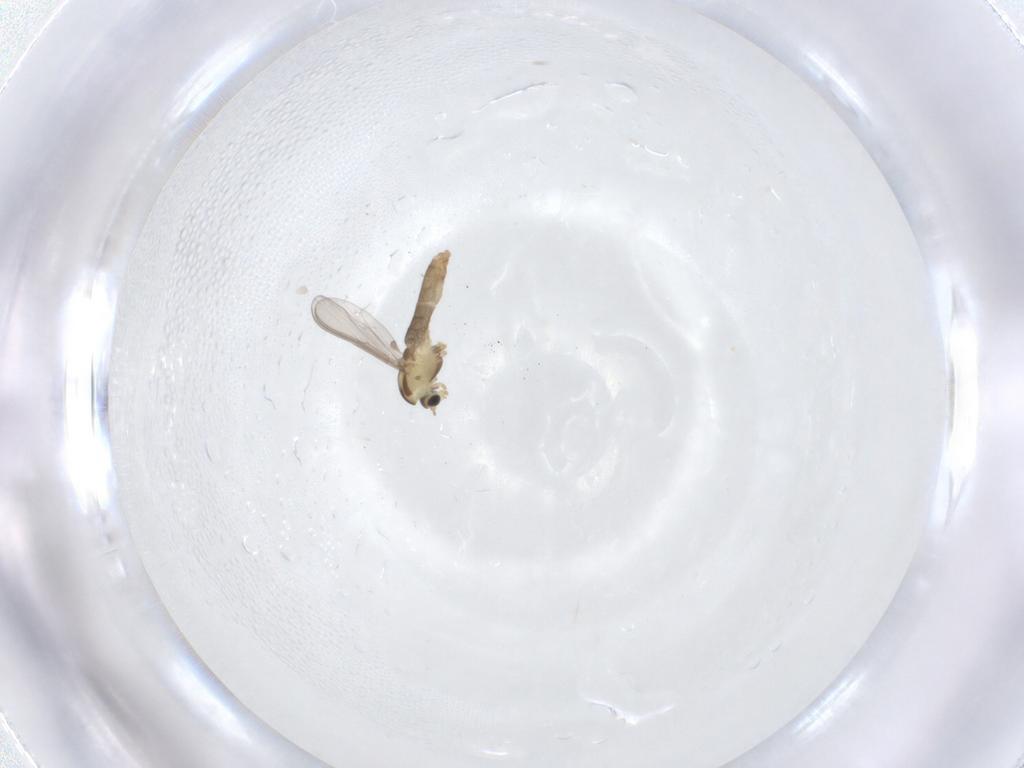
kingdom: Animalia
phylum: Arthropoda
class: Insecta
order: Diptera
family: Chironomidae
